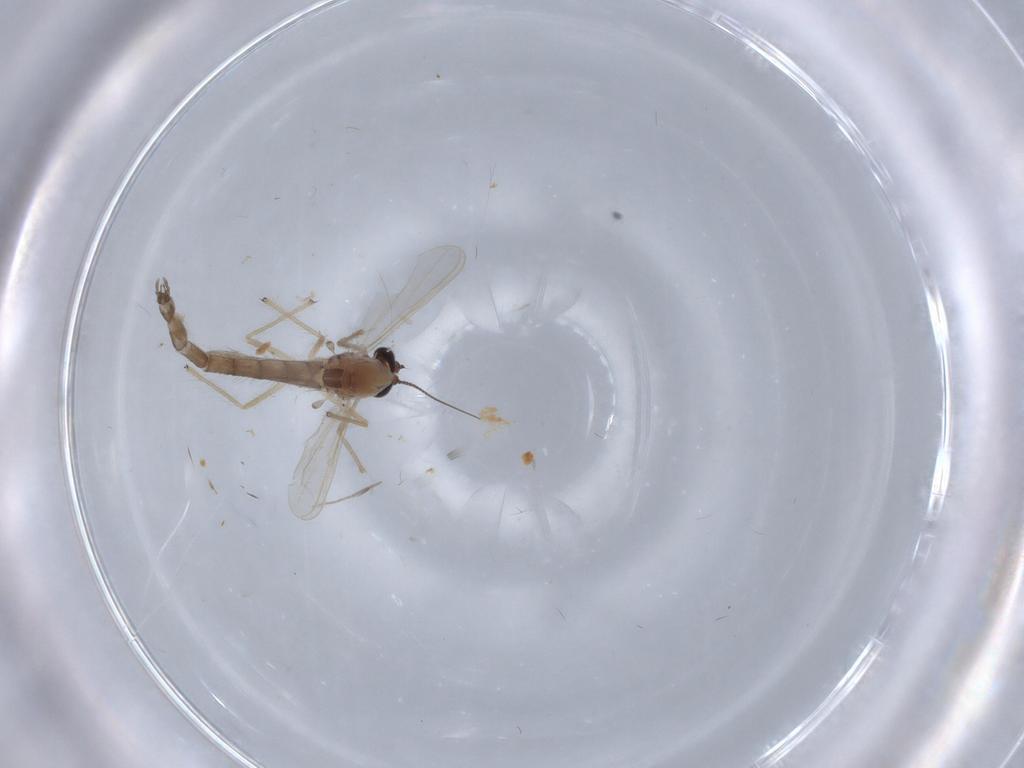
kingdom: Animalia
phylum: Arthropoda
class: Insecta
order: Diptera
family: Chironomidae
